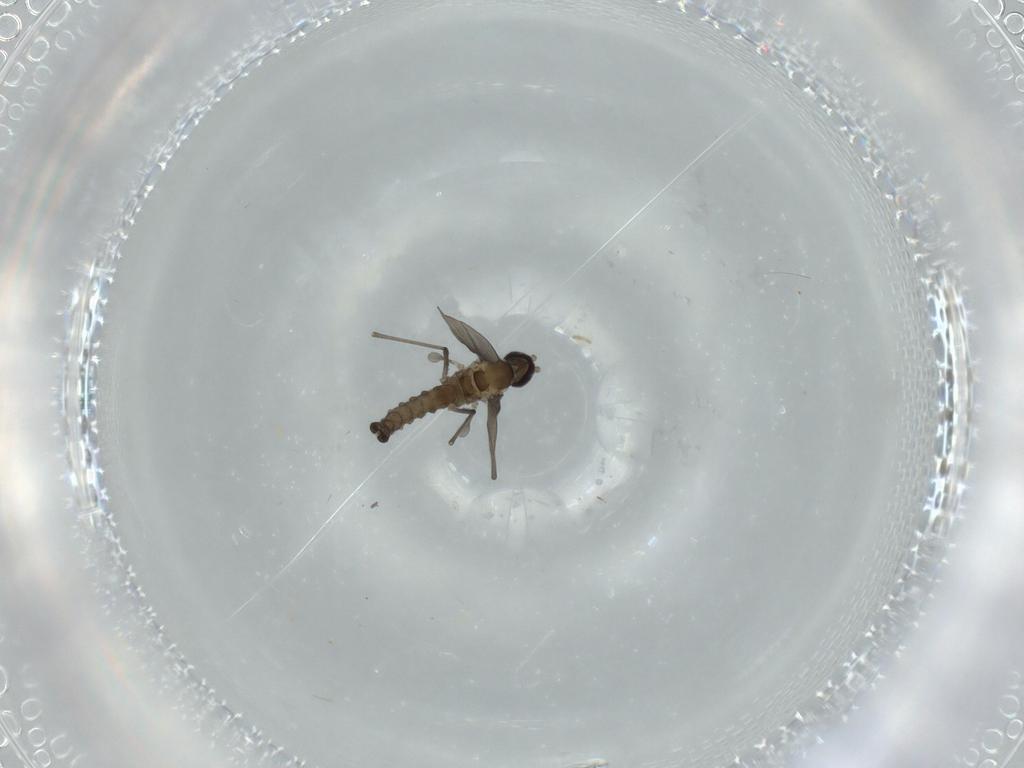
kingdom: Animalia
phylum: Arthropoda
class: Insecta
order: Diptera
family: Cecidomyiidae
